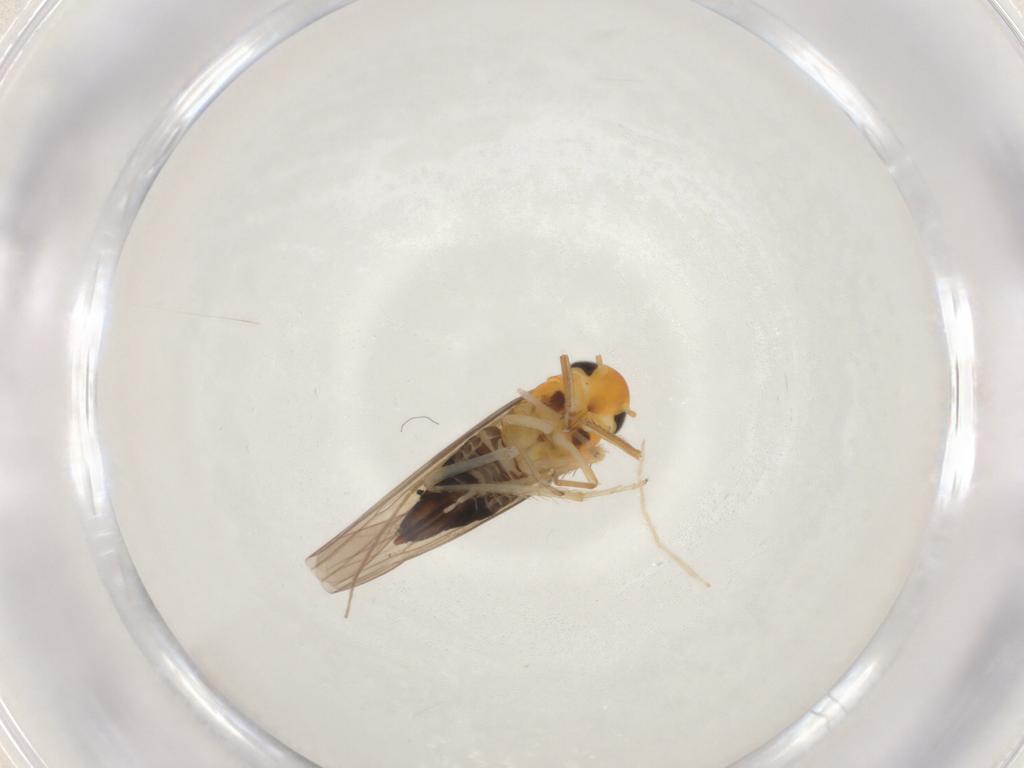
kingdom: Animalia
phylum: Arthropoda
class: Insecta
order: Hemiptera
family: Cicadellidae
